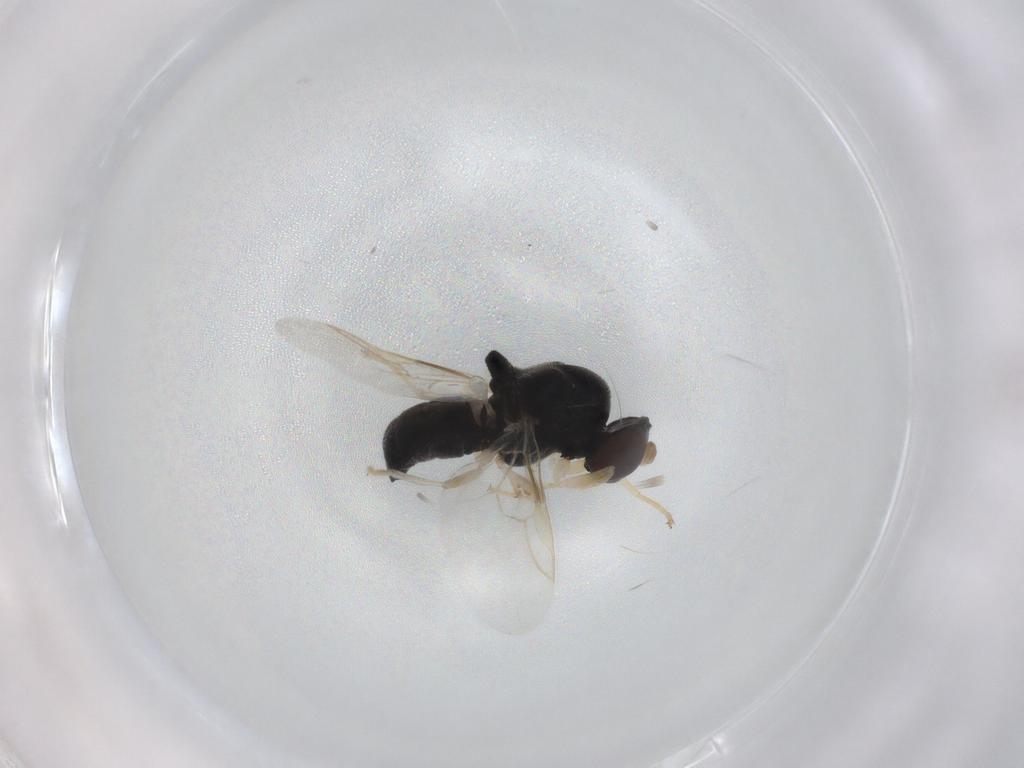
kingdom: Animalia
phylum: Arthropoda
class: Insecta
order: Diptera
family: Cecidomyiidae
